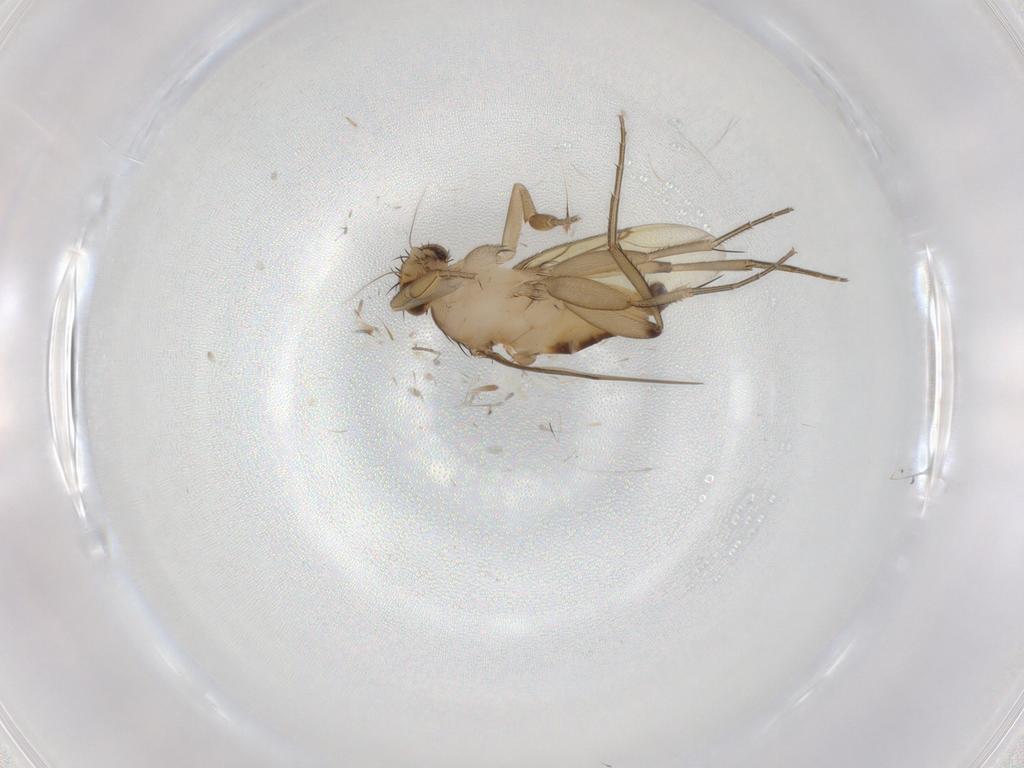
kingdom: Animalia
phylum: Arthropoda
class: Insecta
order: Diptera
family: Phoridae
